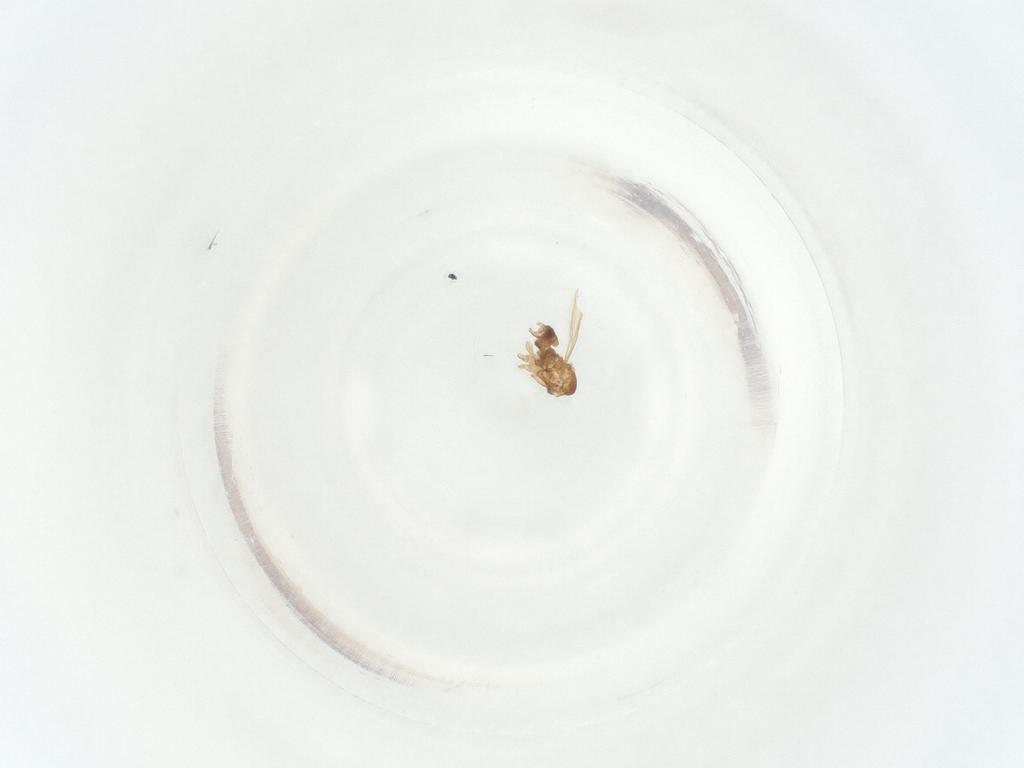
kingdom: Animalia
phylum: Arthropoda
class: Insecta
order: Diptera
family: Sciaridae
